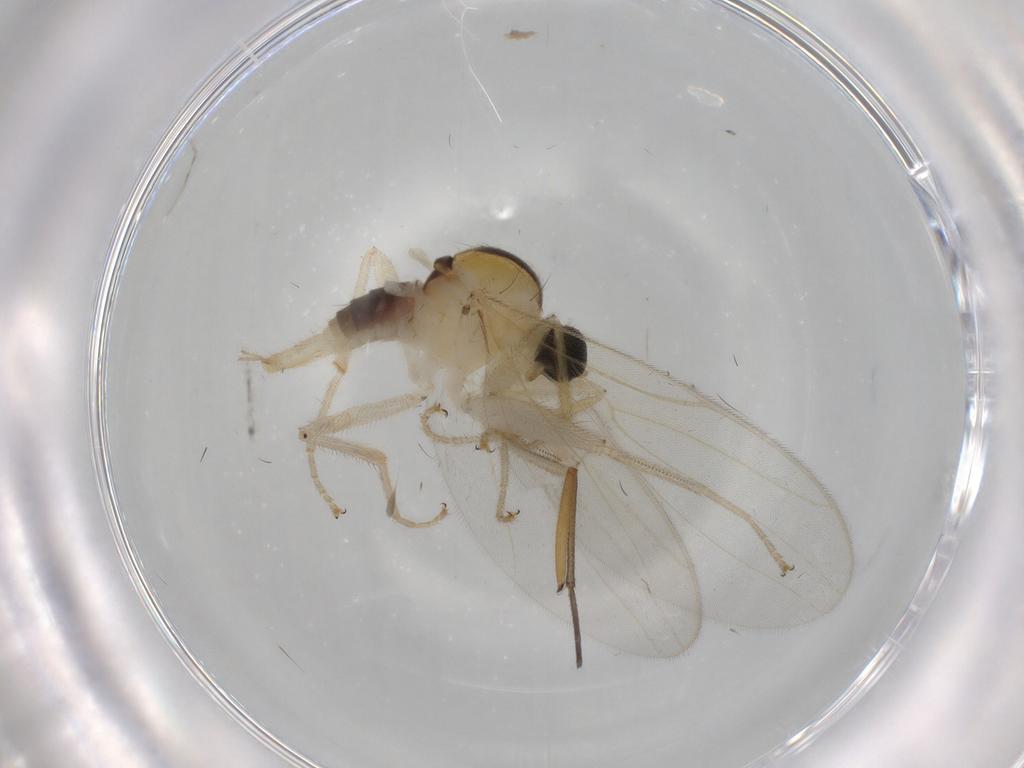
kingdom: Animalia
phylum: Arthropoda
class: Insecta
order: Diptera
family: Hybotidae
